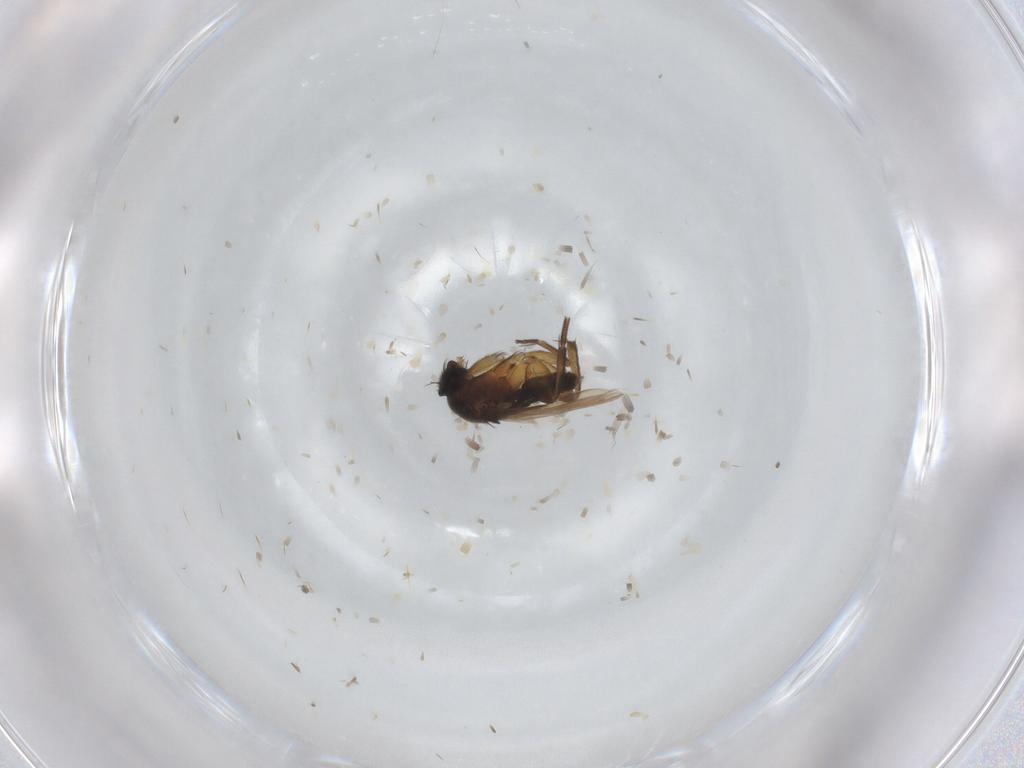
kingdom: Animalia
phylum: Arthropoda
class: Insecta
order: Diptera
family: Phoridae
